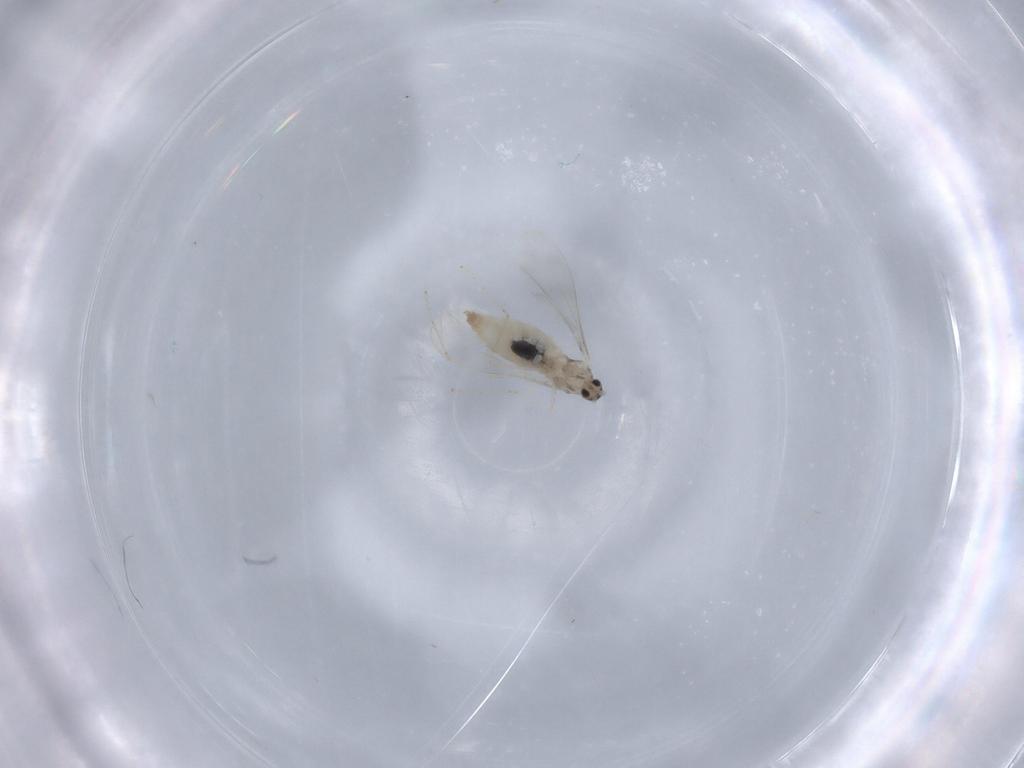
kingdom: Animalia
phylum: Arthropoda
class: Insecta
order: Diptera
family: Cecidomyiidae
